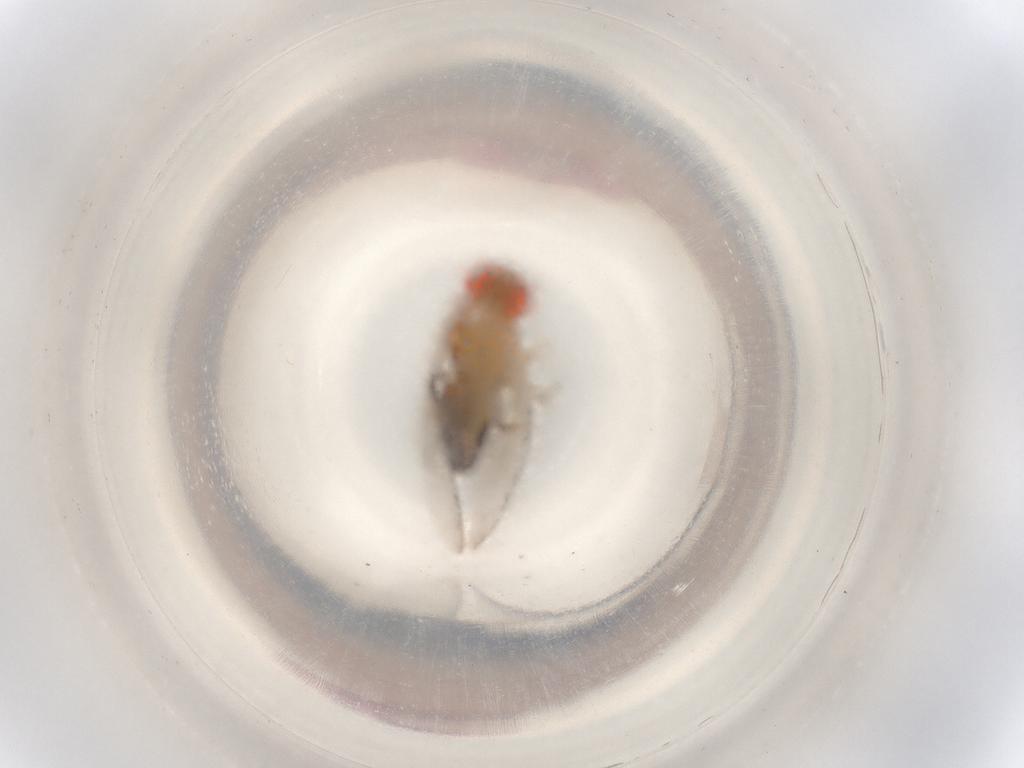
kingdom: Animalia
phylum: Arthropoda
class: Insecta
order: Diptera
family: Drosophilidae
